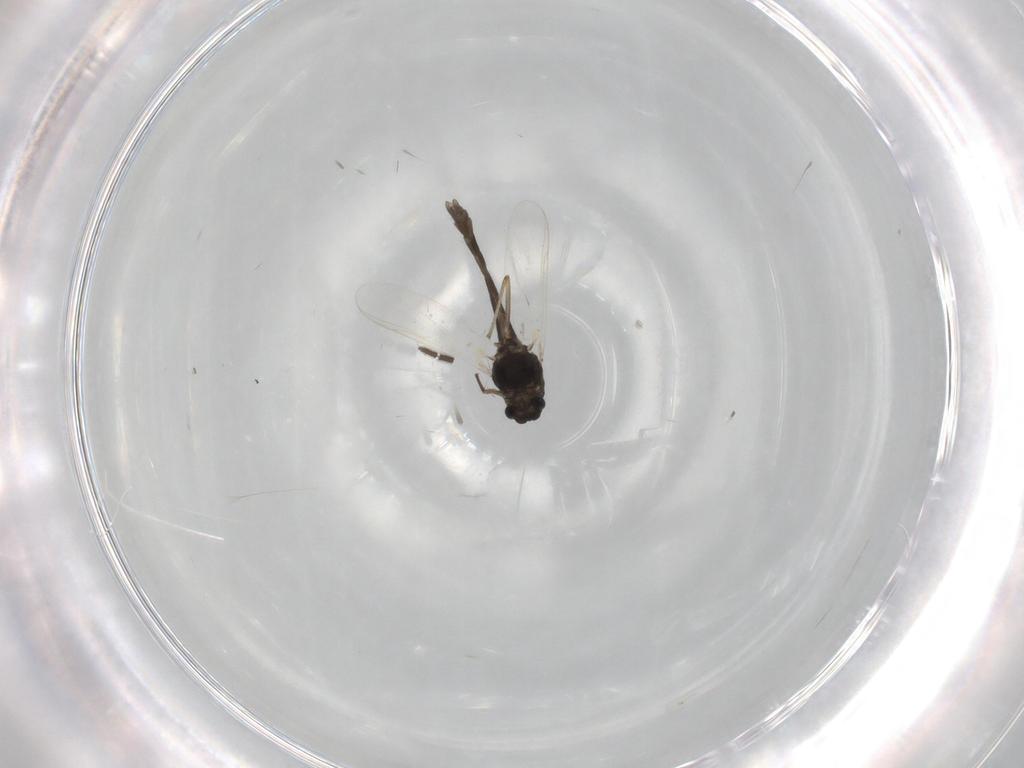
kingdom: Animalia
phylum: Arthropoda
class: Insecta
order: Diptera
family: Chironomidae
